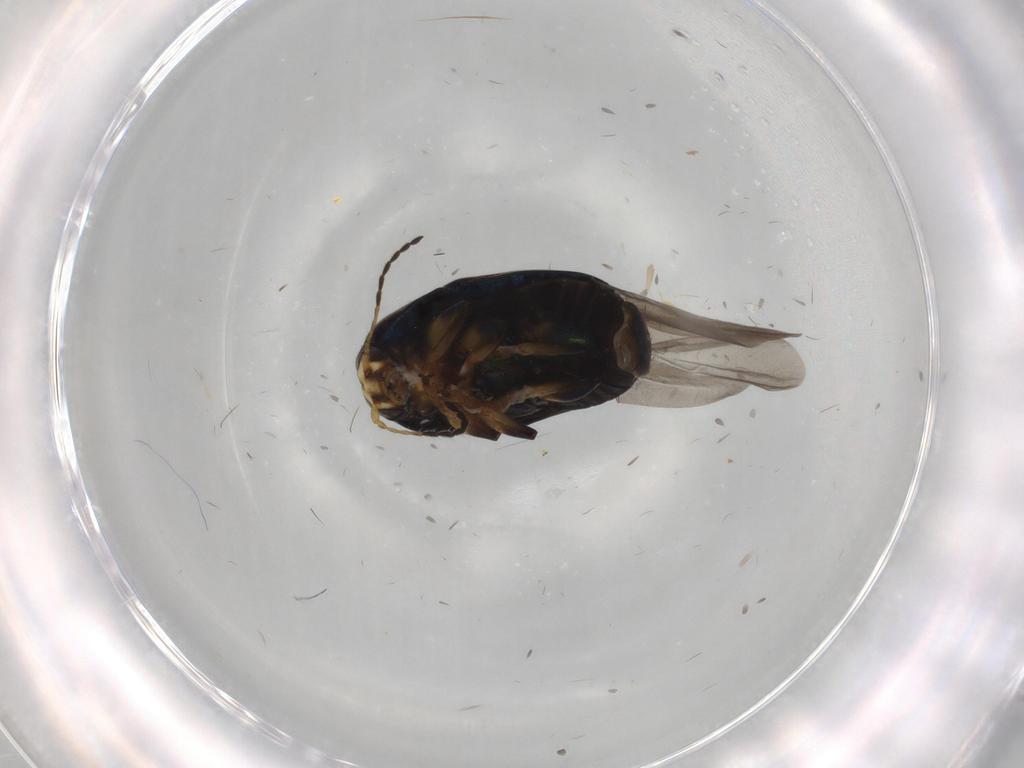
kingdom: Animalia
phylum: Arthropoda
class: Insecta
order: Coleoptera
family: Chrysomelidae
